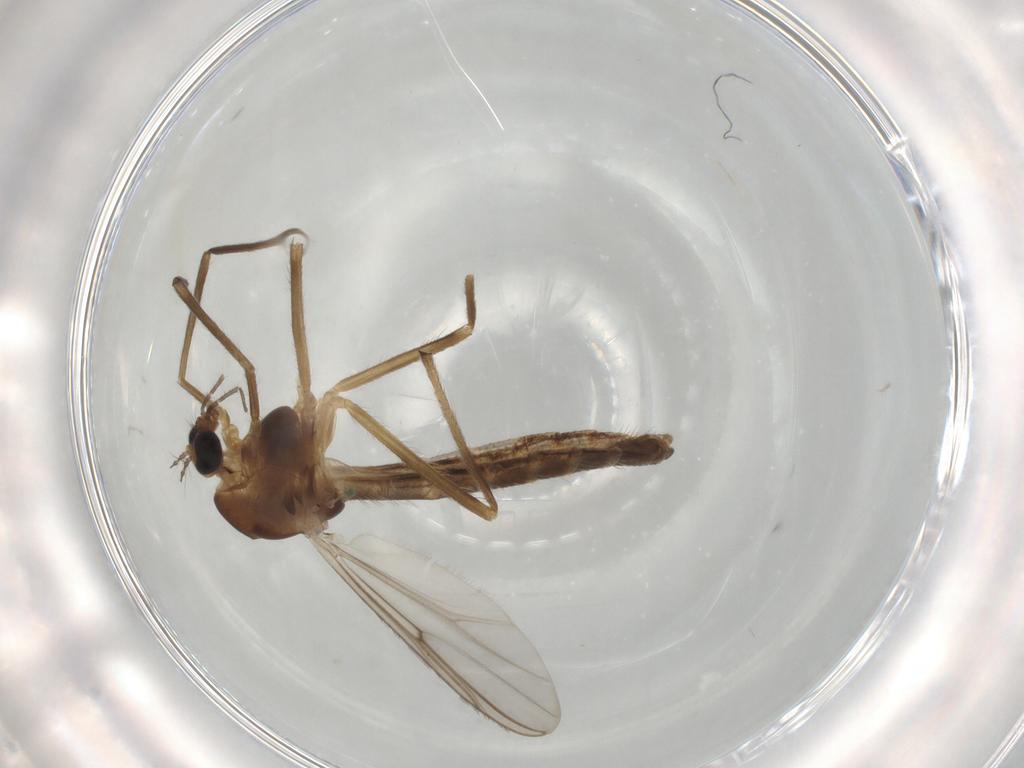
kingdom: Animalia
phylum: Arthropoda
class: Insecta
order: Diptera
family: Chironomidae
